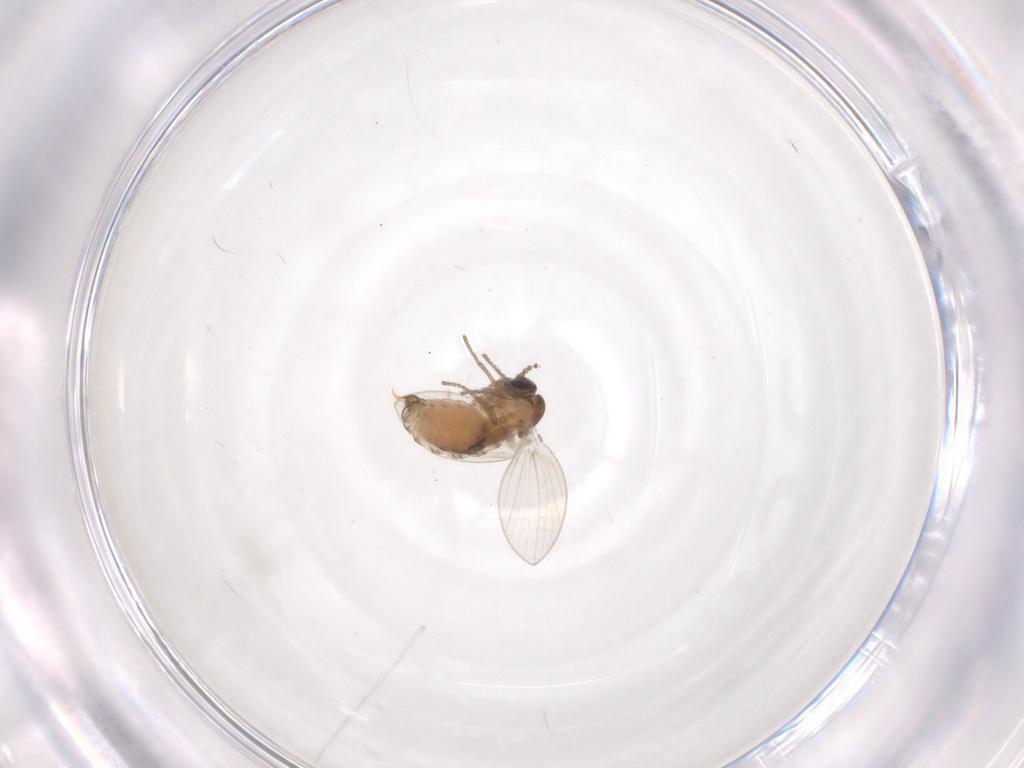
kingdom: Animalia
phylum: Arthropoda
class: Insecta
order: Diptera
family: Psychodidae
